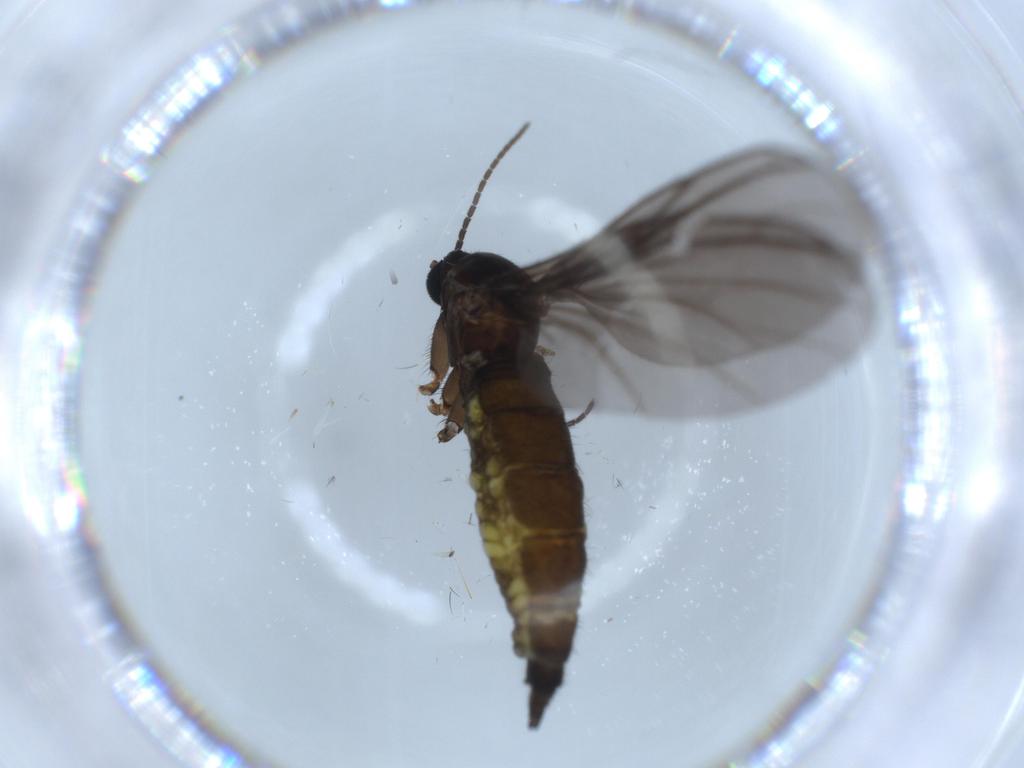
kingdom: Animalia
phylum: Arthropoda
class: Insecta
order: Diptera
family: Sciaridae
